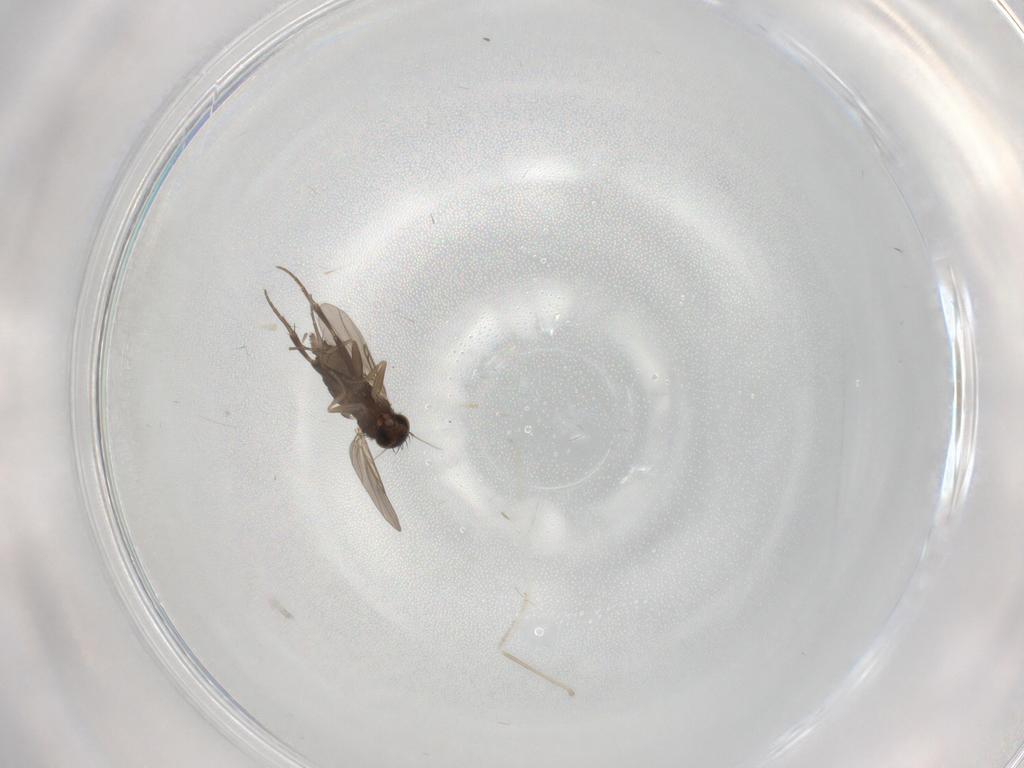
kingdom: Animalia
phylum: Arthropoda
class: Insecta
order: Diptera
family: Phoridae
